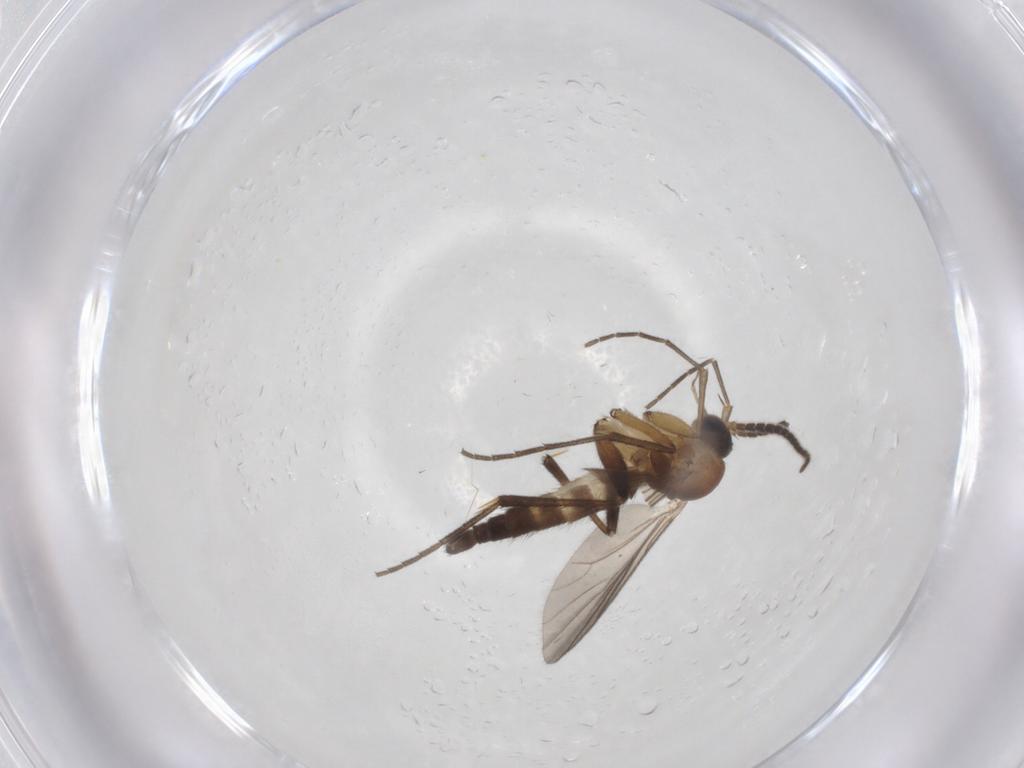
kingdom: Animalia
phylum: Arthropoda
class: Insecta
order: Diptera
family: Mycetophilidae
